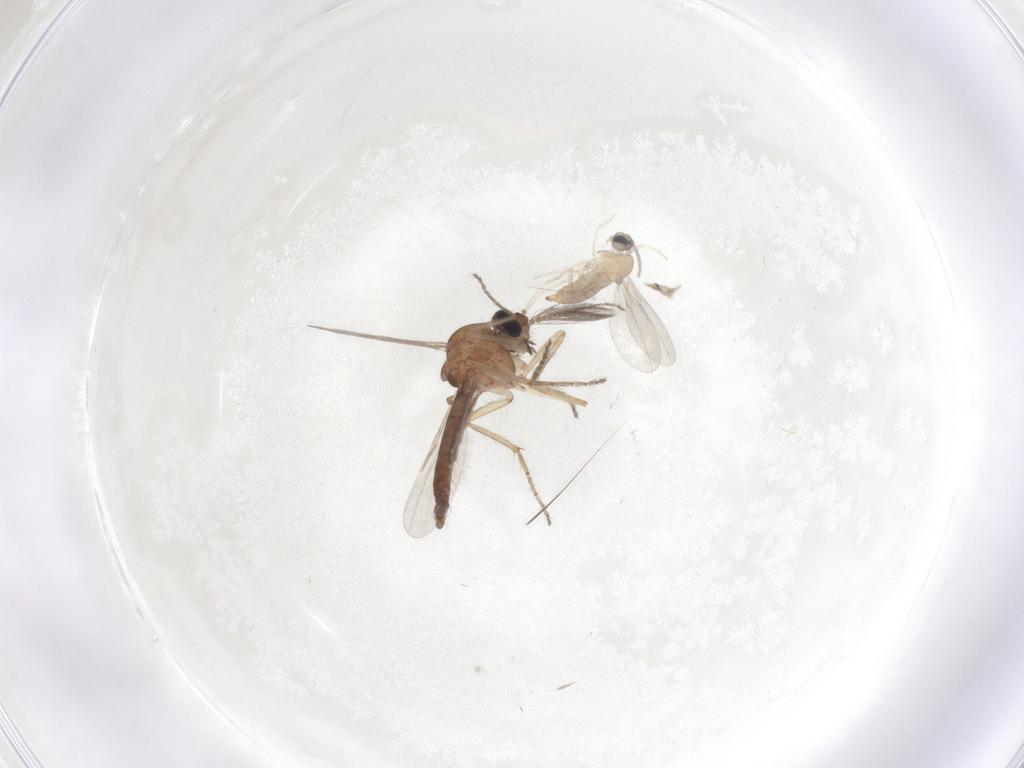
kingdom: Animalia
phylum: Arthropoda
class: Insecta
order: Diptera
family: Ceratopogonidae
